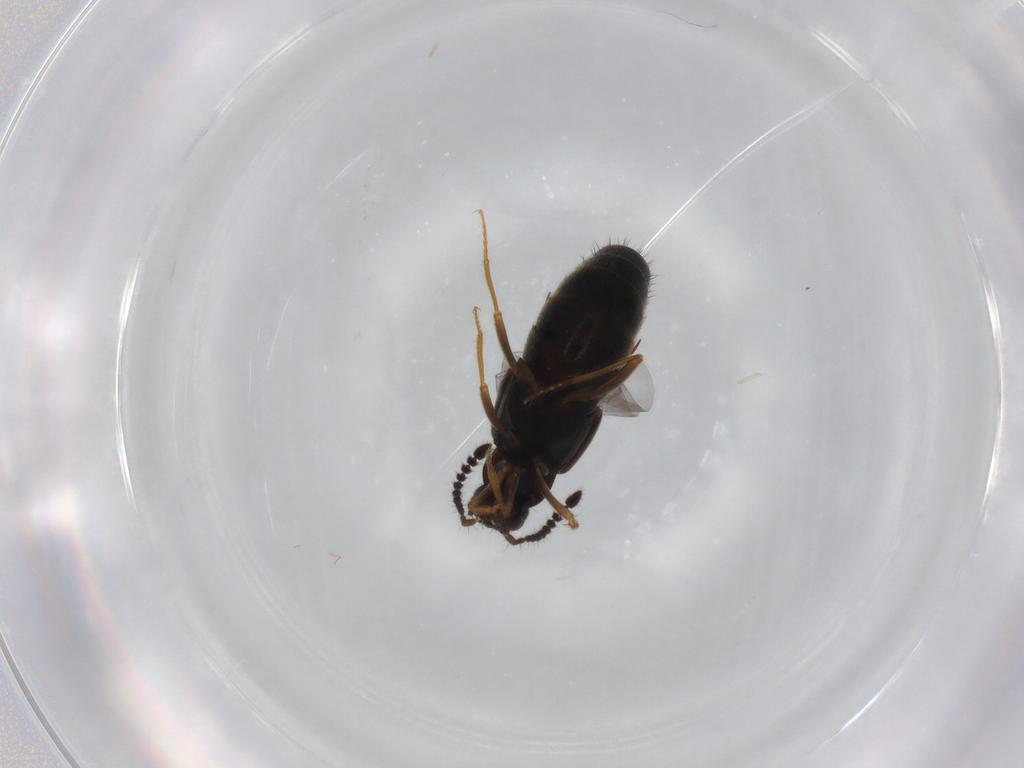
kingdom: Animalia
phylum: Arthropoda
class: Insecta
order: Coleoptera
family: Staphylinidae
